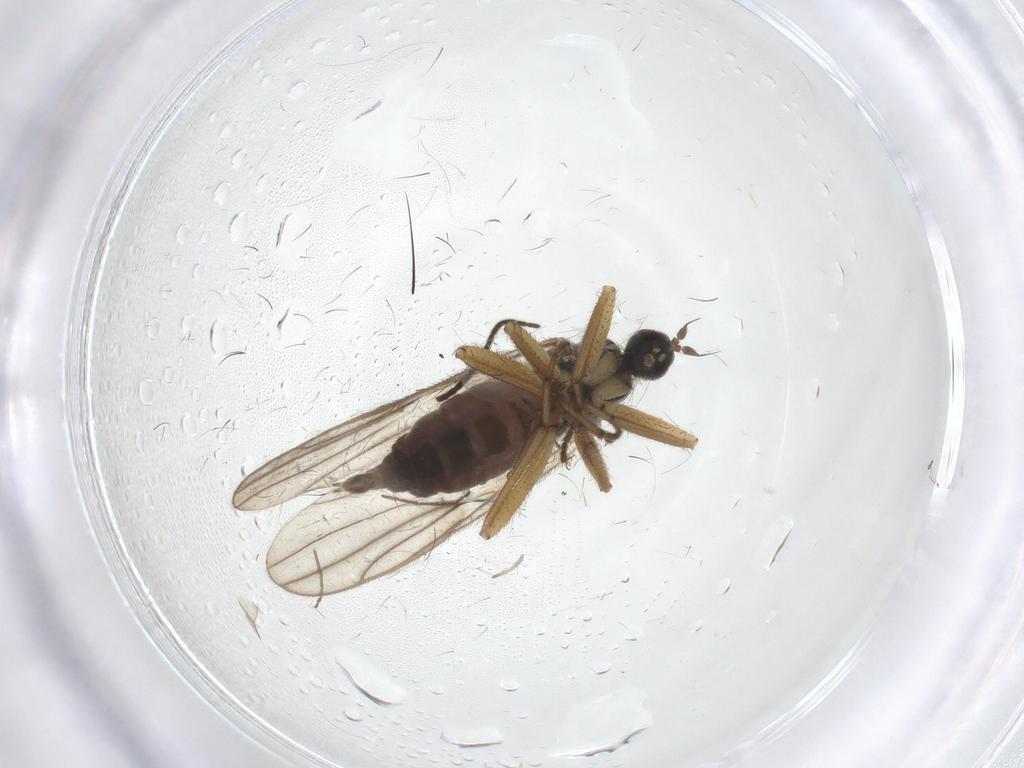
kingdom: Animalia
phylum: Arthropoda
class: Insecta
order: Diptera
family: Hybotidae
